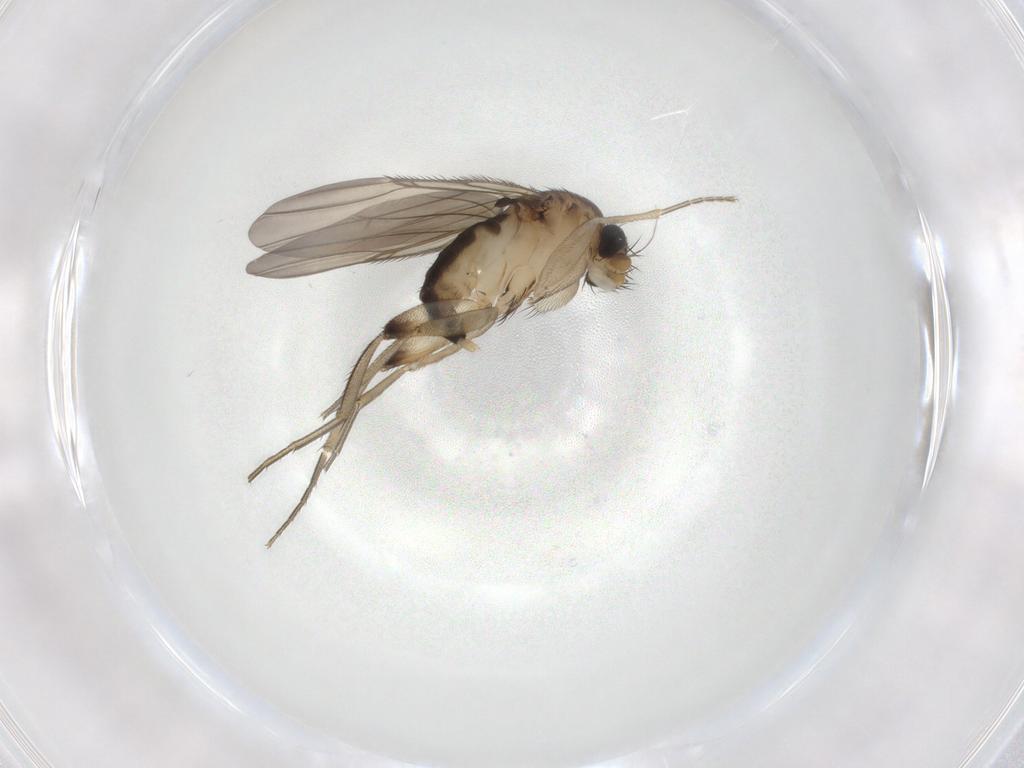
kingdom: Animalia
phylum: Arthropoda
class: Insecta
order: Diptera
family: Phoridae
